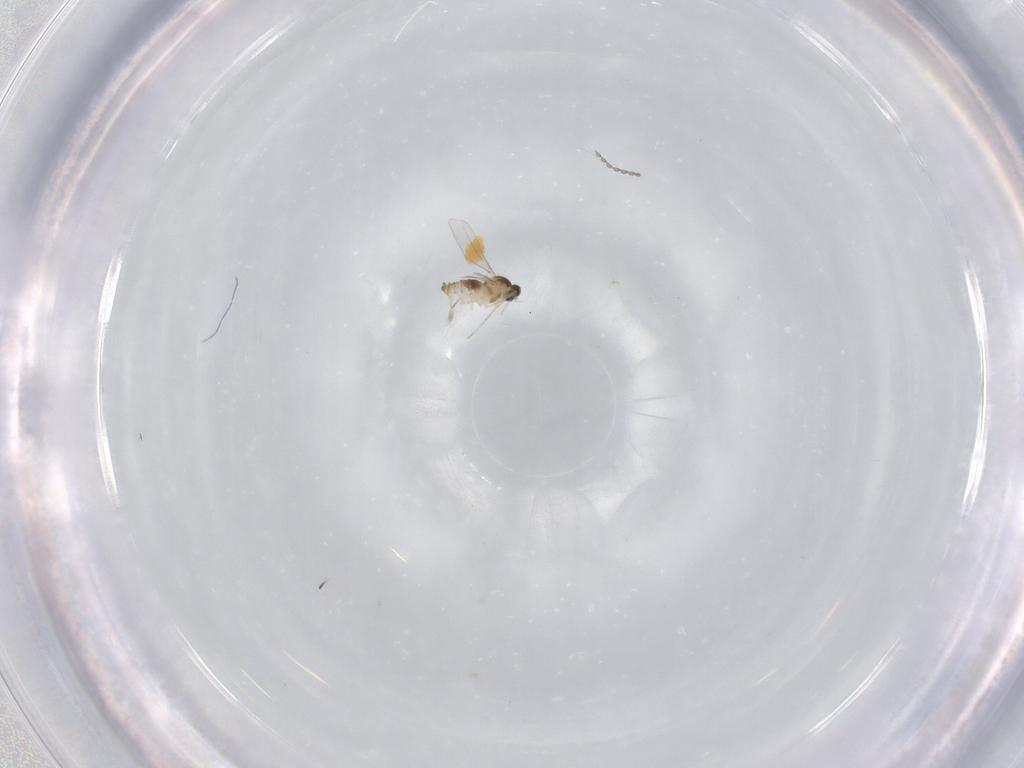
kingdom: Animalia
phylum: Arthropoda
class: Insecta
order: Diptera
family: Cecidomyiidae
